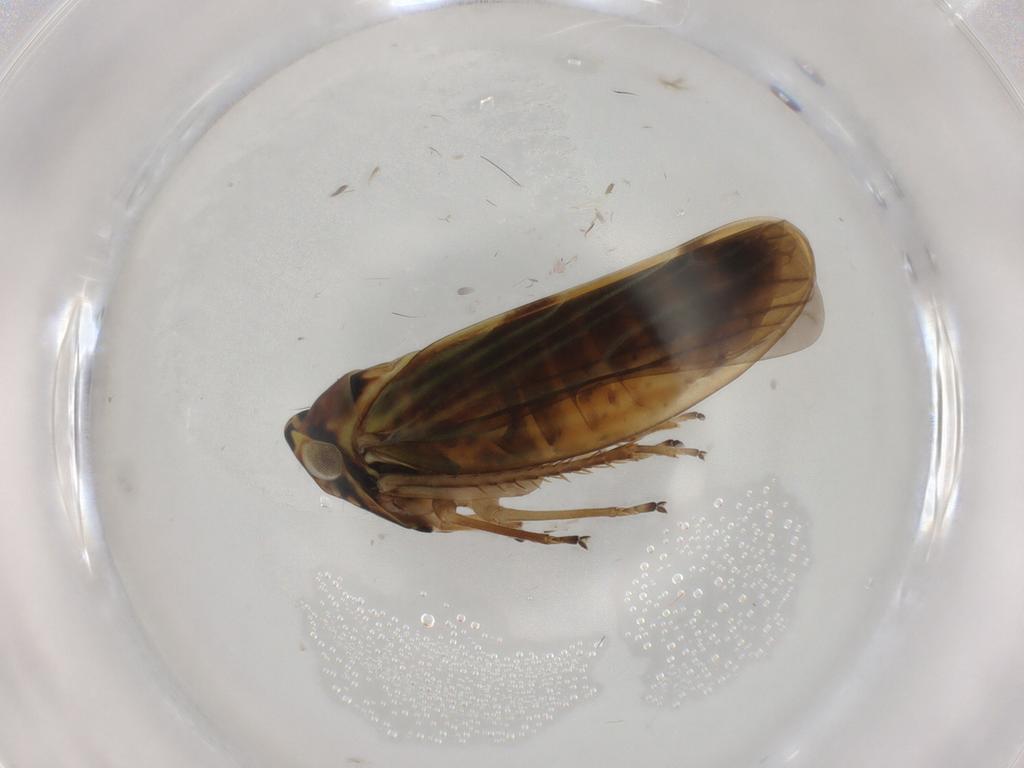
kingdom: Animalia
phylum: Arthropoda
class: Insecta
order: Hemiptera
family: Cicadellidae
